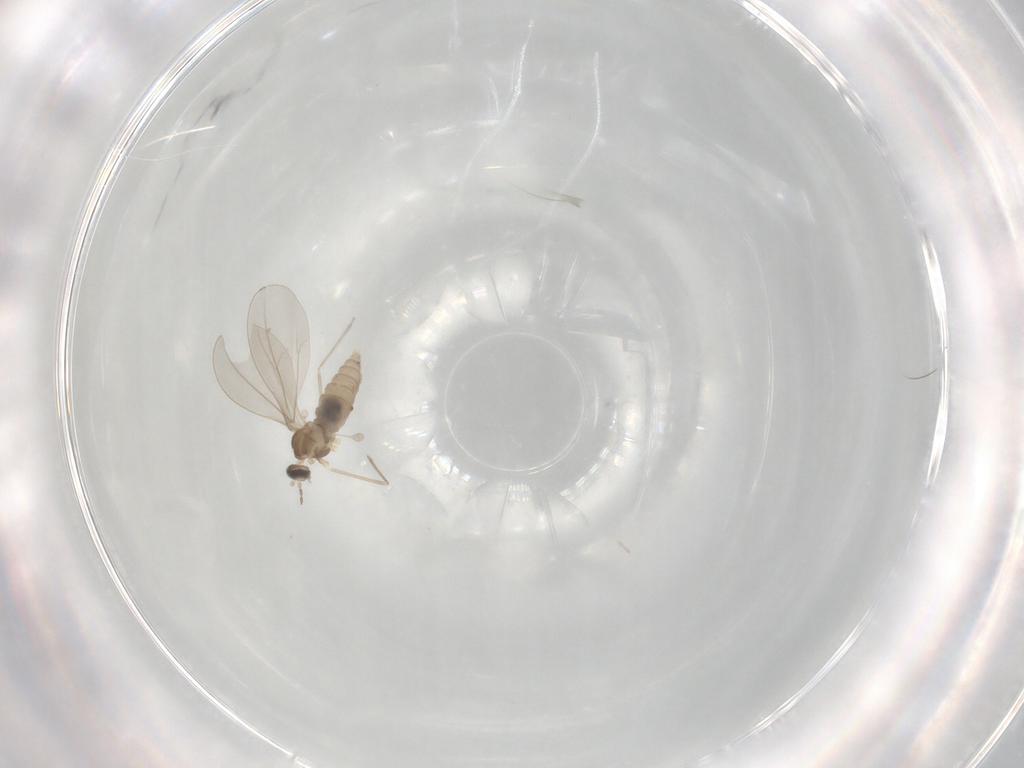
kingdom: Animalia
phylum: Arthropoda
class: Insecta
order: Diptera
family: Cecidomyiidae
